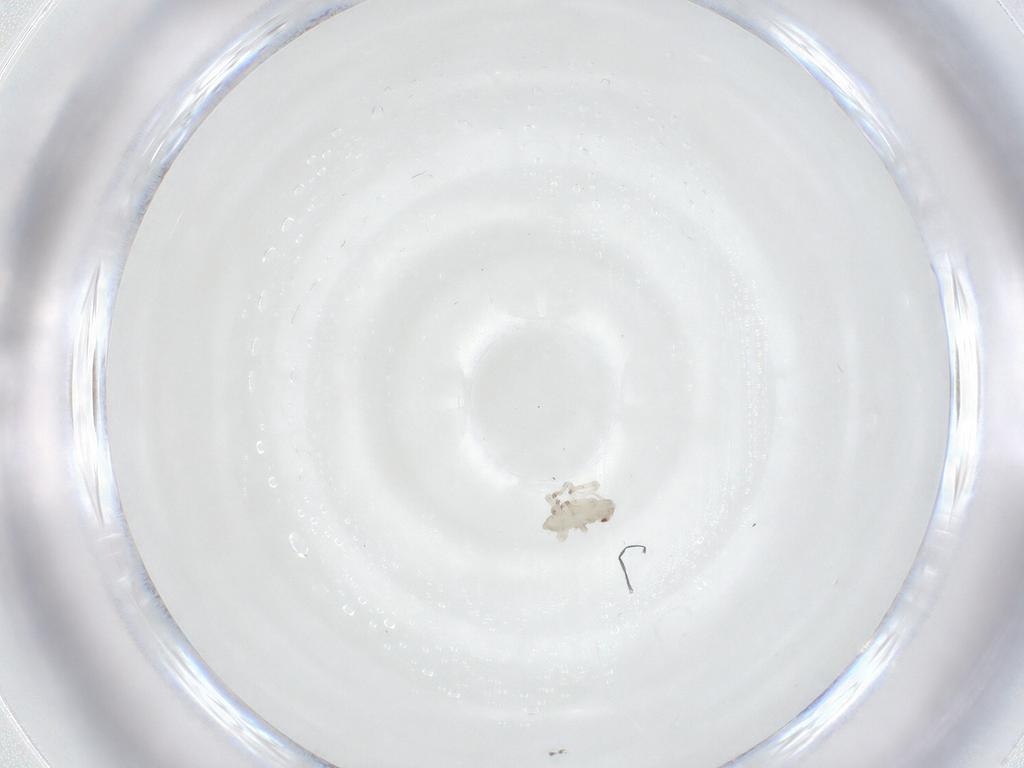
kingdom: Animalia
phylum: Arthropoda
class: Insecta
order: Hemiptera
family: Cicadellidae
